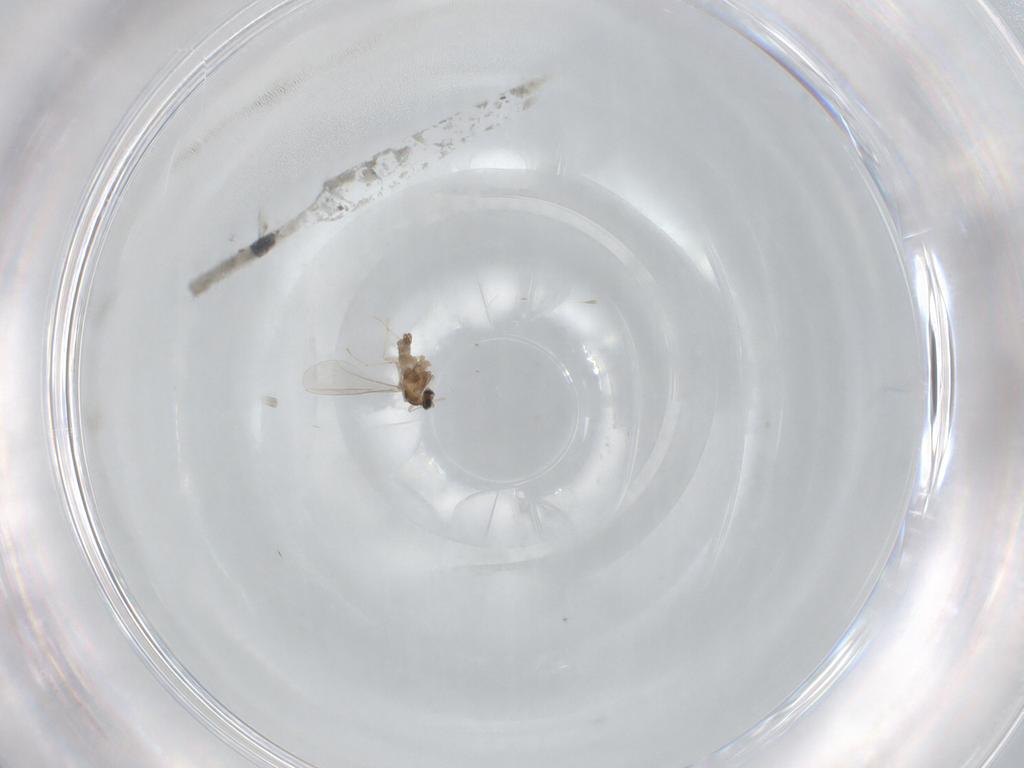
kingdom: Animalia
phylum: Arthropoda
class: Insecta
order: Diptera
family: Cecidomyiidae
